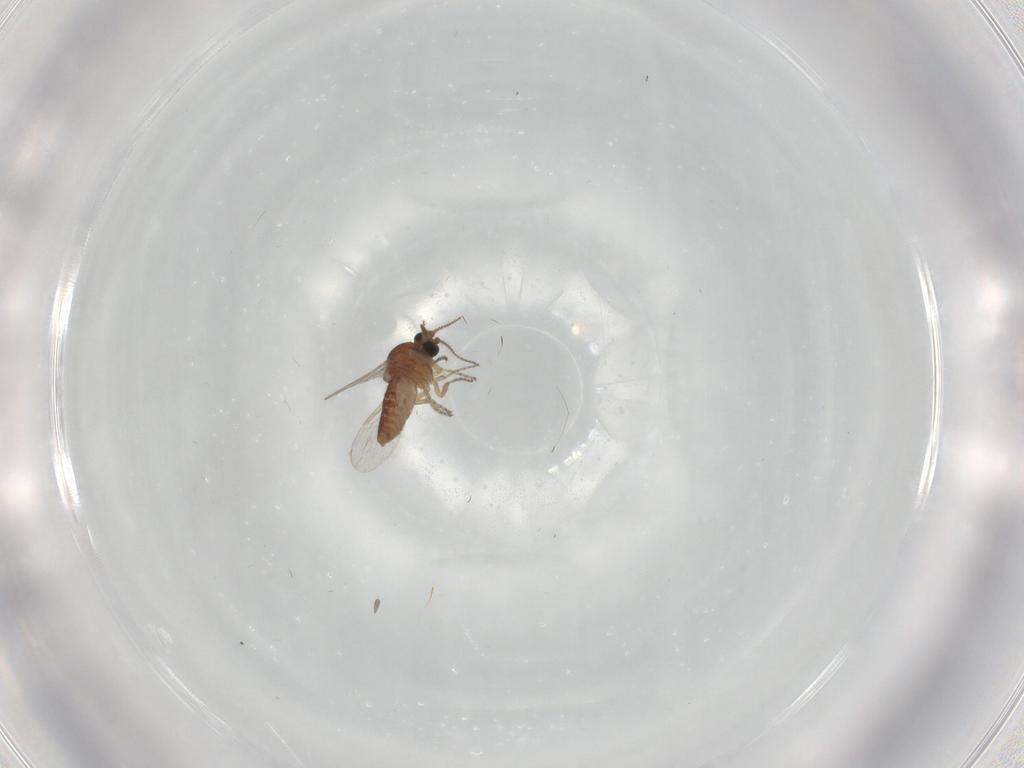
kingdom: Animalia
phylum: Arthropoda
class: Insecta
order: Diptera
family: Ceratopogonidae
